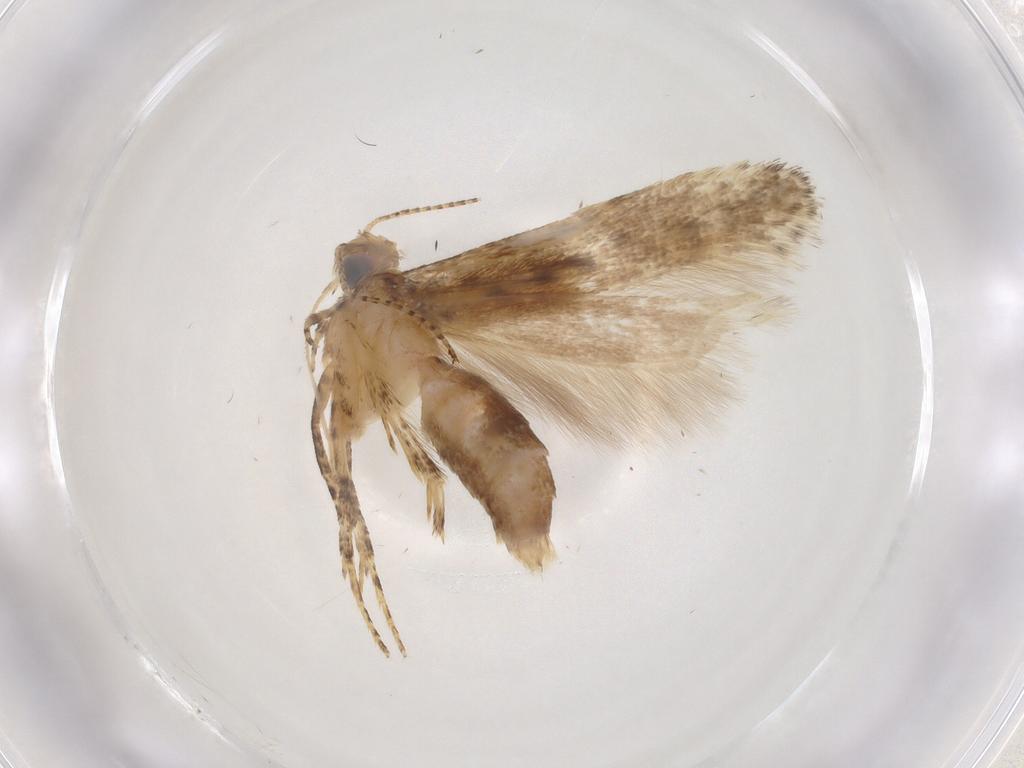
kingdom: Animalia
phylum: Arthropoda
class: Insecta
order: Lepidoptera
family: Gelechiidae
